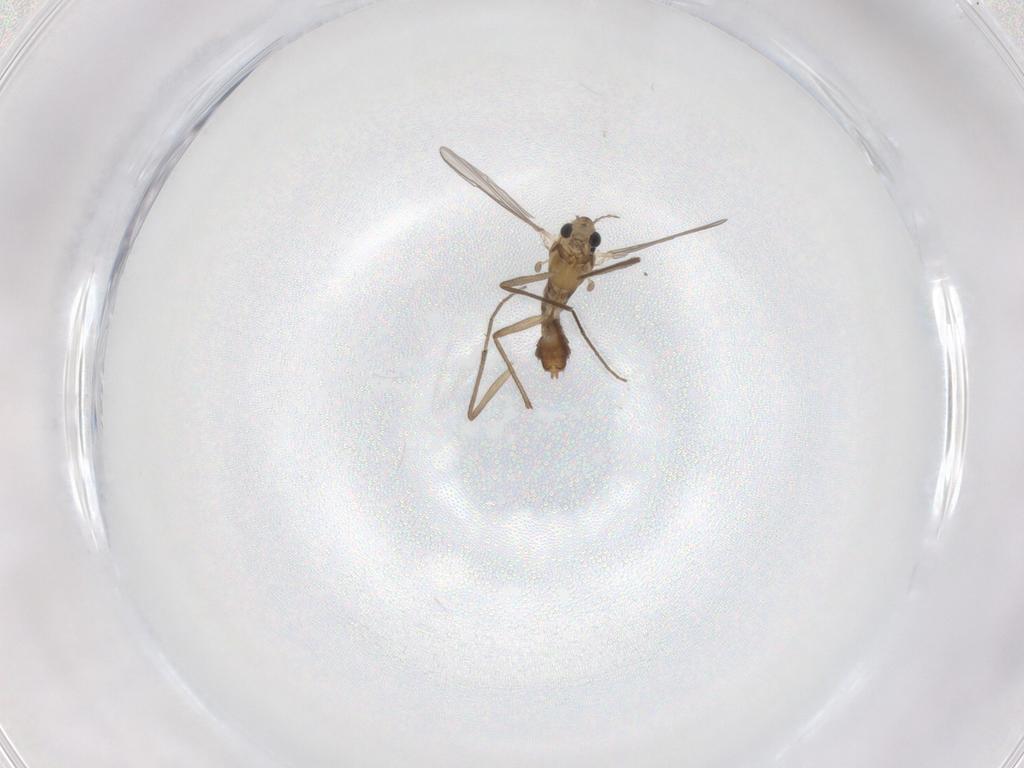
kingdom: Animalia
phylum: Arthropoda
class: Insecta
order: Diptera
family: Chironomidae
